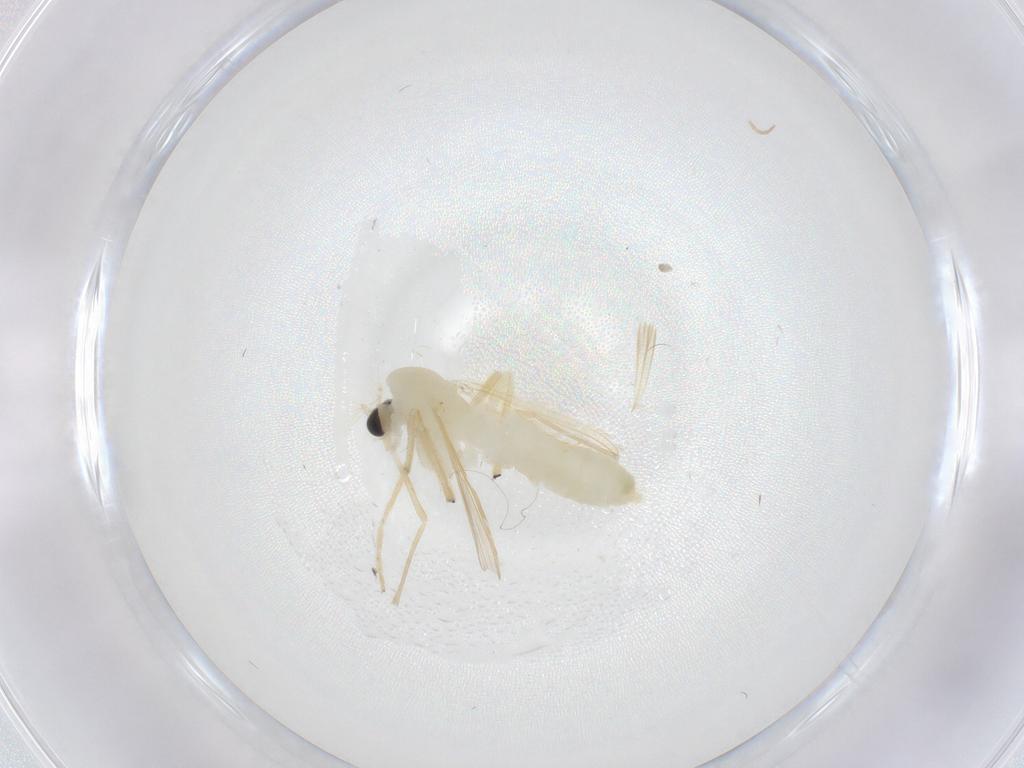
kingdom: Animalia
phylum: Arthropoda
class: Insecta
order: Diptera
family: Chironomidae
